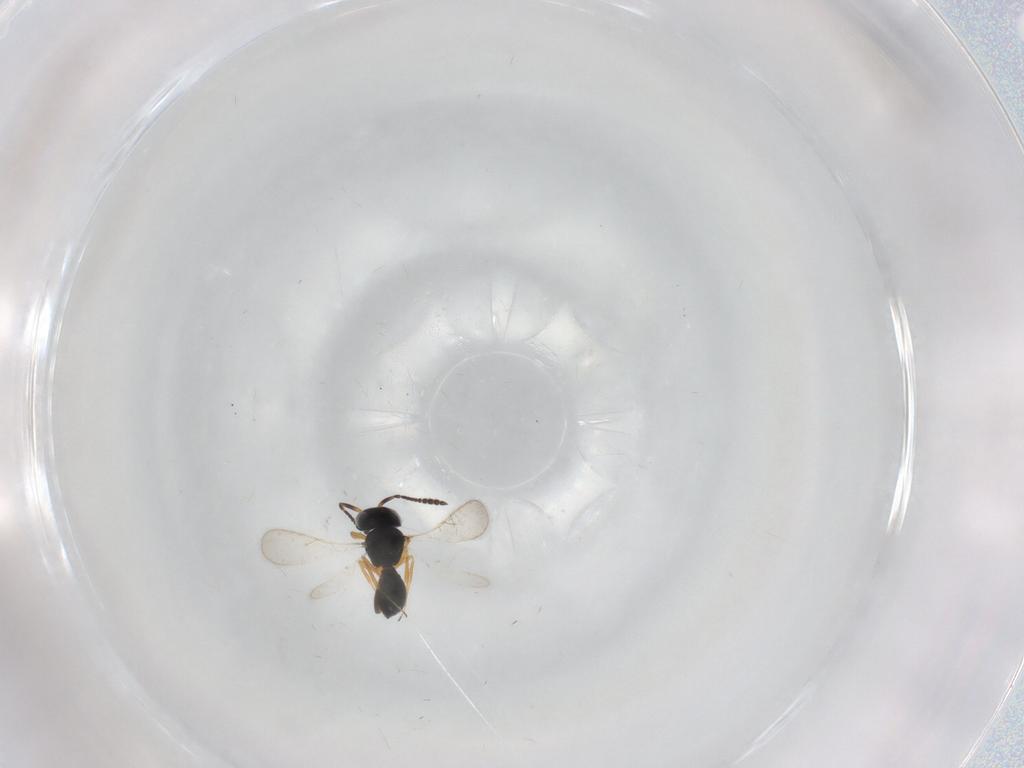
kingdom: Animalia
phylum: Arthropoda
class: Insecta
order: Hymenoptera
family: Scelionidae
